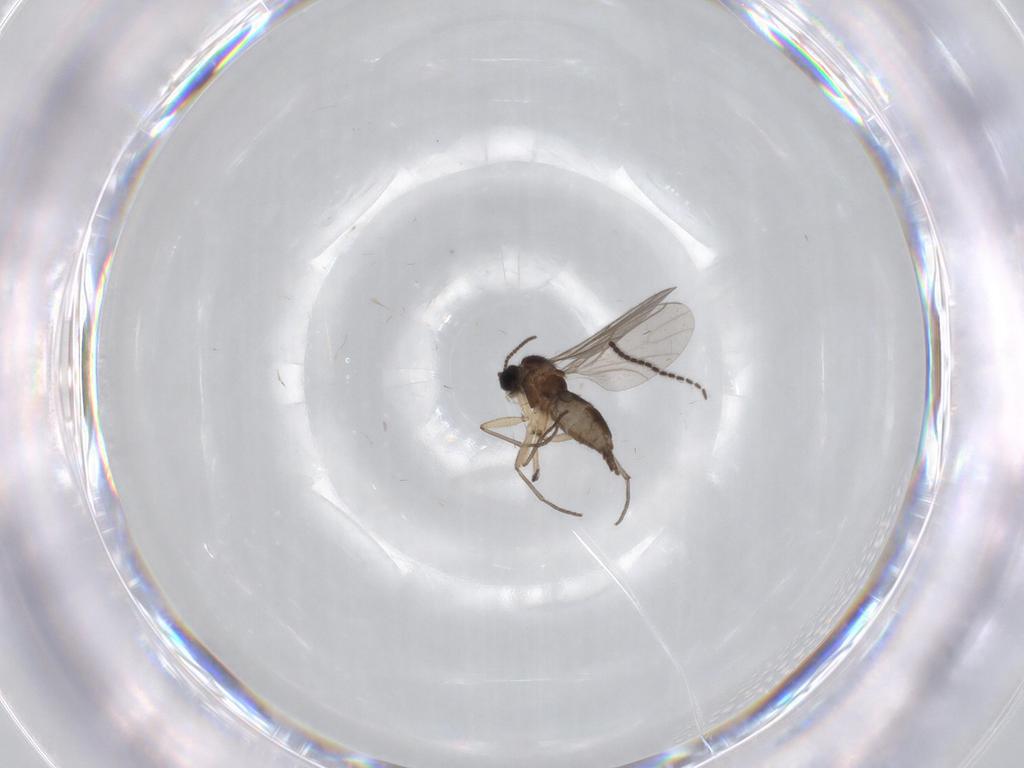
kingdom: Animalia
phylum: Arthropoda
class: Insecta
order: Diptera
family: Sciaridae
